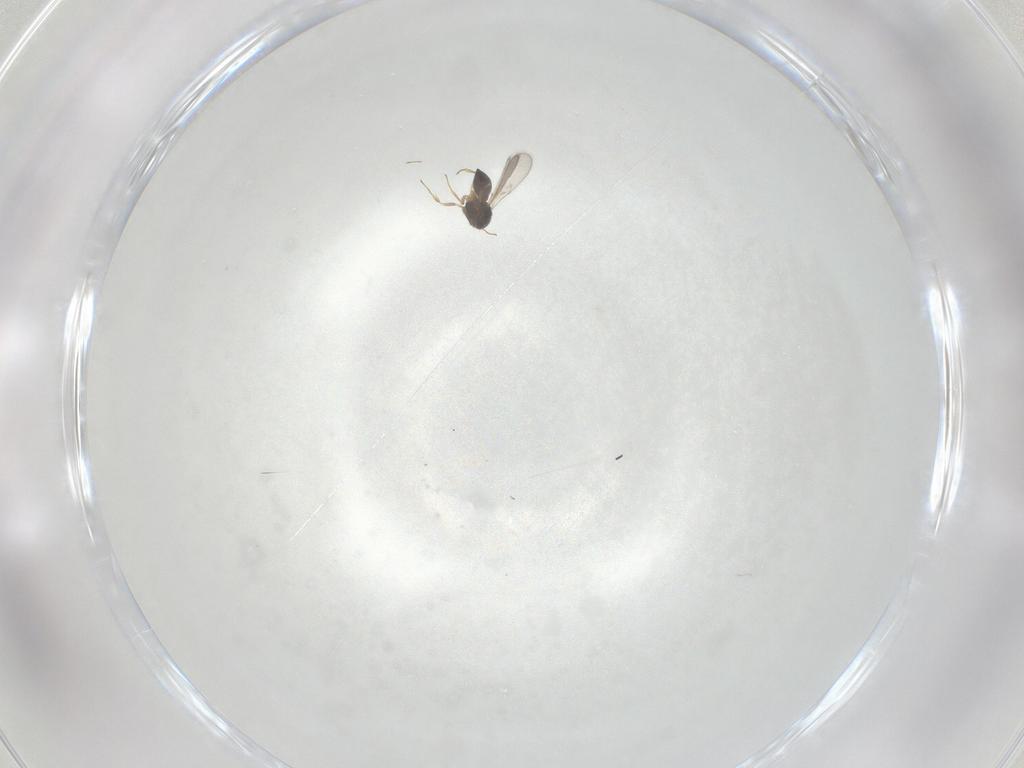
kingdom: Animalia
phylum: Arthropoda
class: Insecta
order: Hymenoptera
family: Scelionidae
